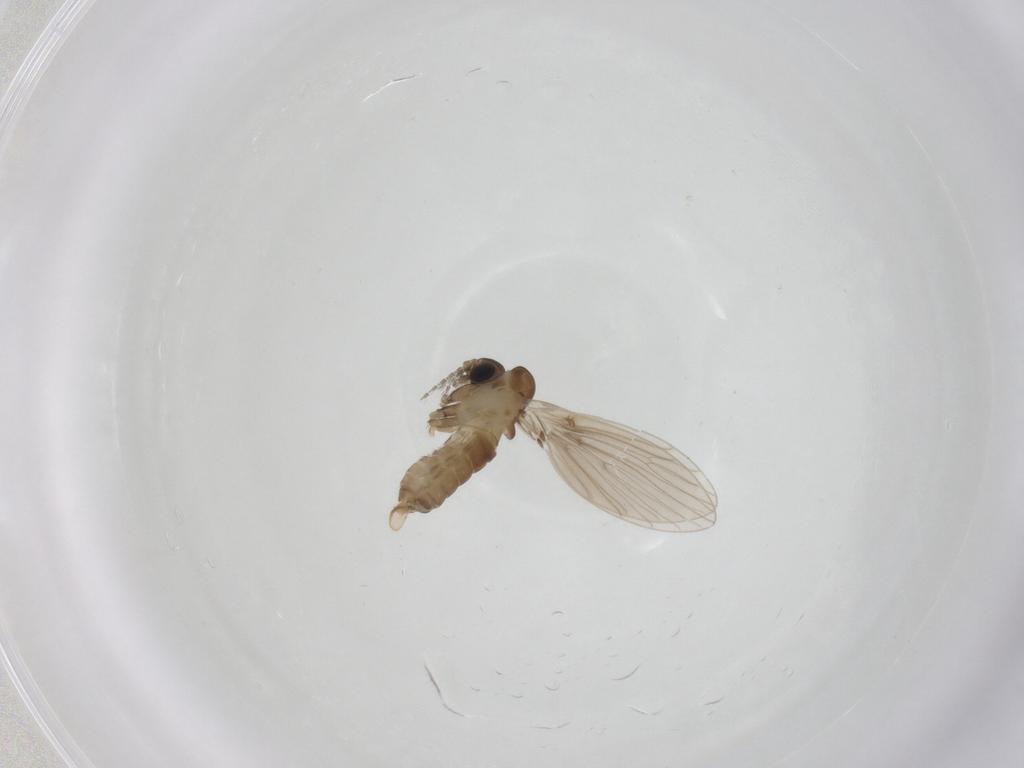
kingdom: Animalia
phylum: Arthropoda
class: Insecta
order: Diptera
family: Psychodidae
